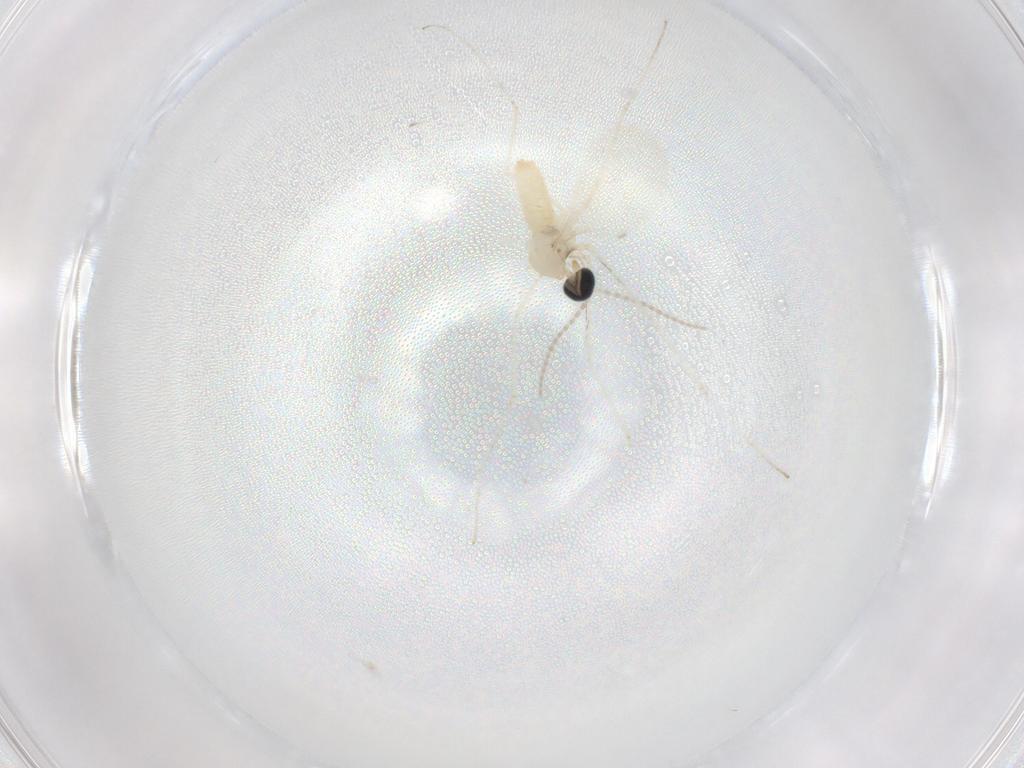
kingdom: Animalia
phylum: Arthropoda
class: Insecta
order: Diptera
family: Cecidomyiidae
